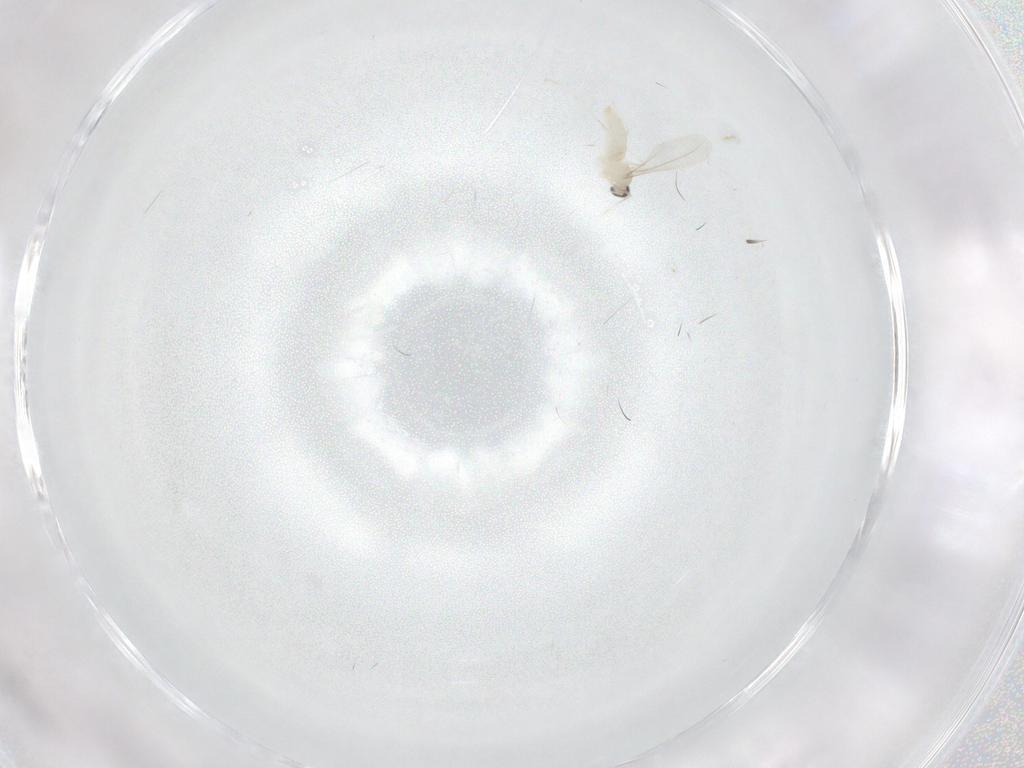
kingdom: Animalia
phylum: Arthropoda
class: Insecta
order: Diptera
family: Cecidomyiidae
